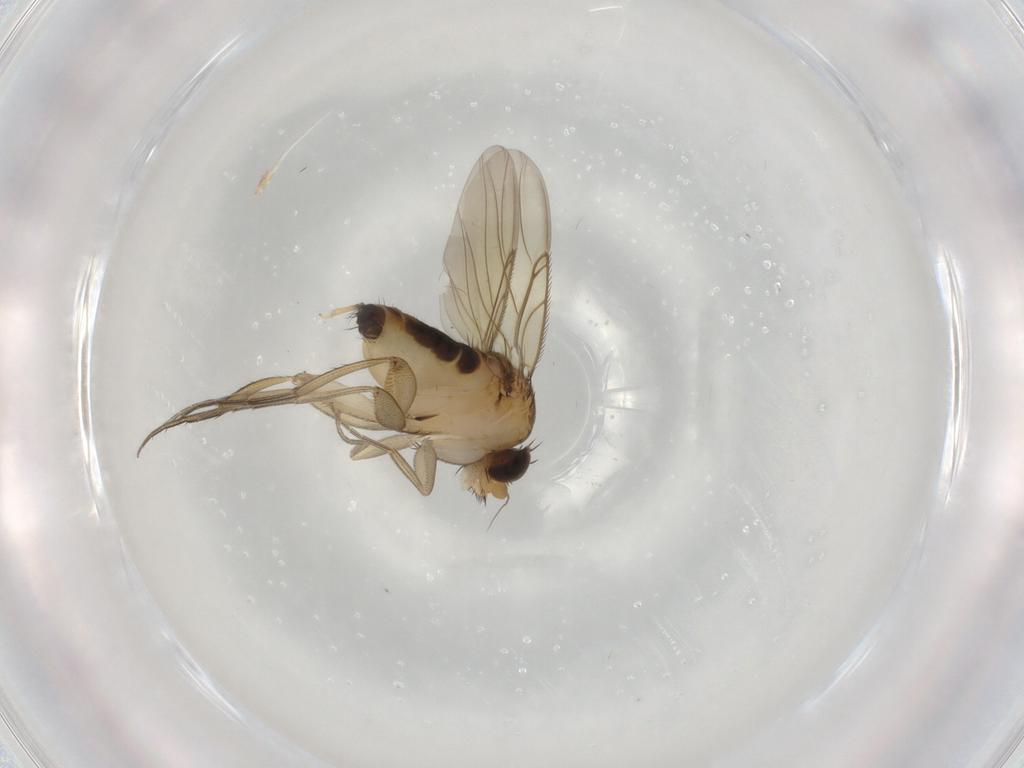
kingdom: Animalia
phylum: Arthropoda
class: Insecta
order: Diptera
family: Phoridae
